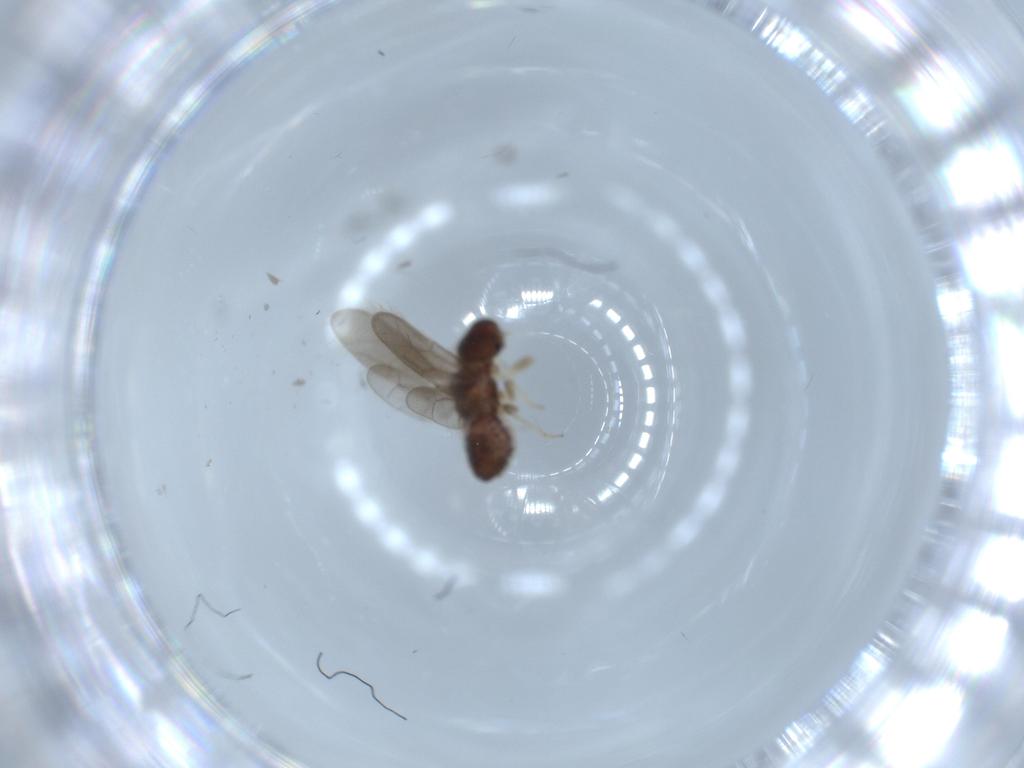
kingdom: Animalia
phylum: Arthropoda
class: Insecta
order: Psocodea
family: Archipsocidae
